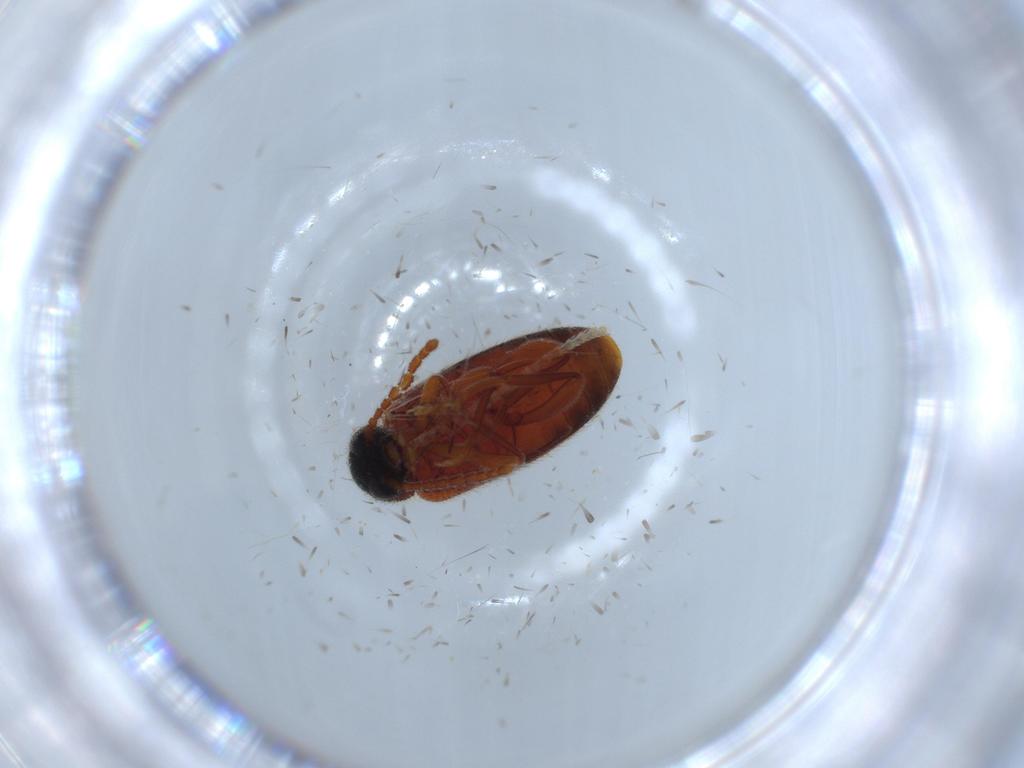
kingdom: Animalia
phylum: Arthropoda
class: Insecta
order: Coleoptera
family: Aderidae
